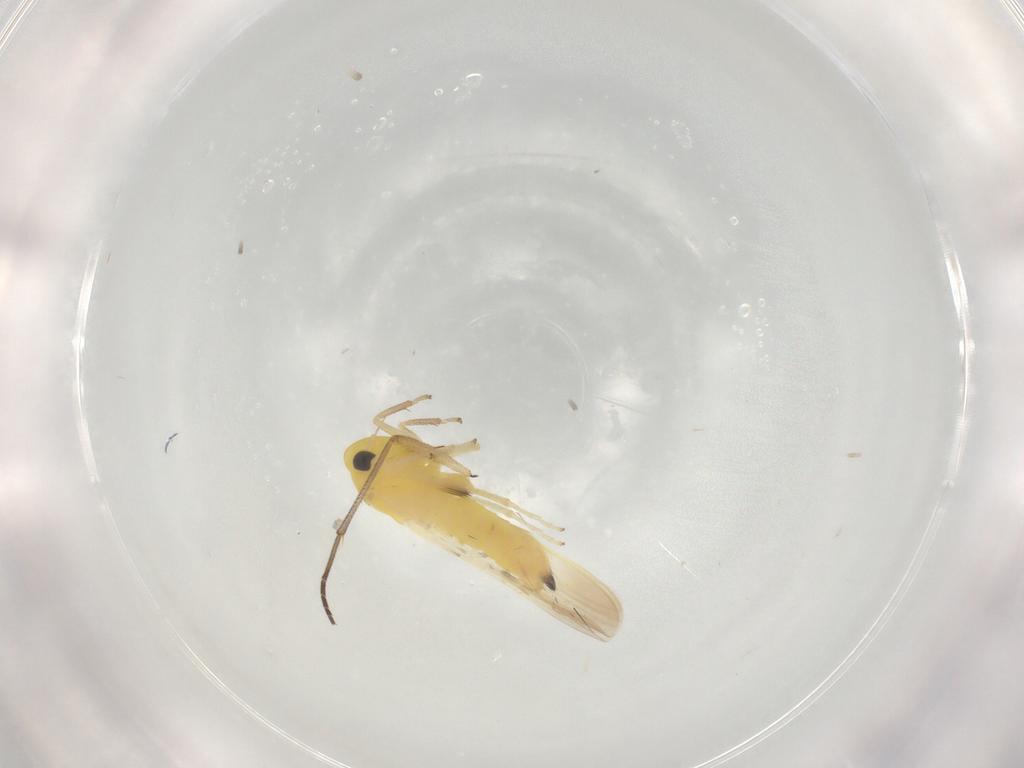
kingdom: Animalia
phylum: Arthropoda
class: Insecta
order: Hemiptera
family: Cicadellidae
